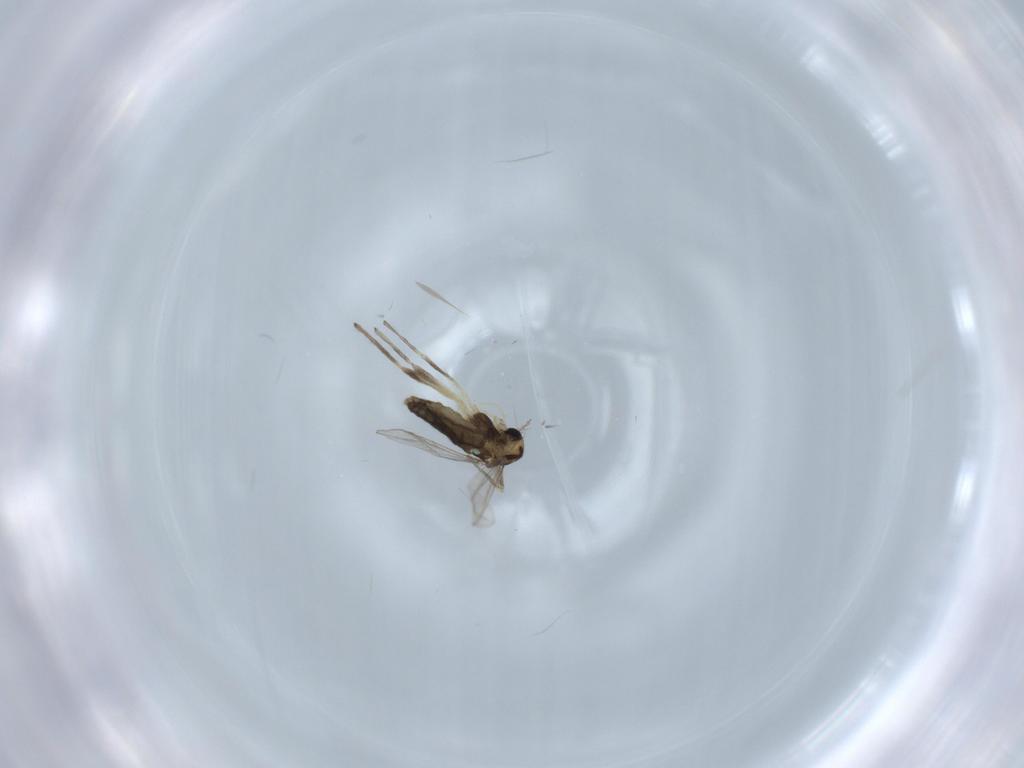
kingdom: Animalia
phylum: Arthropoda
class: Insecta
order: Diptera
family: Chironomidae
